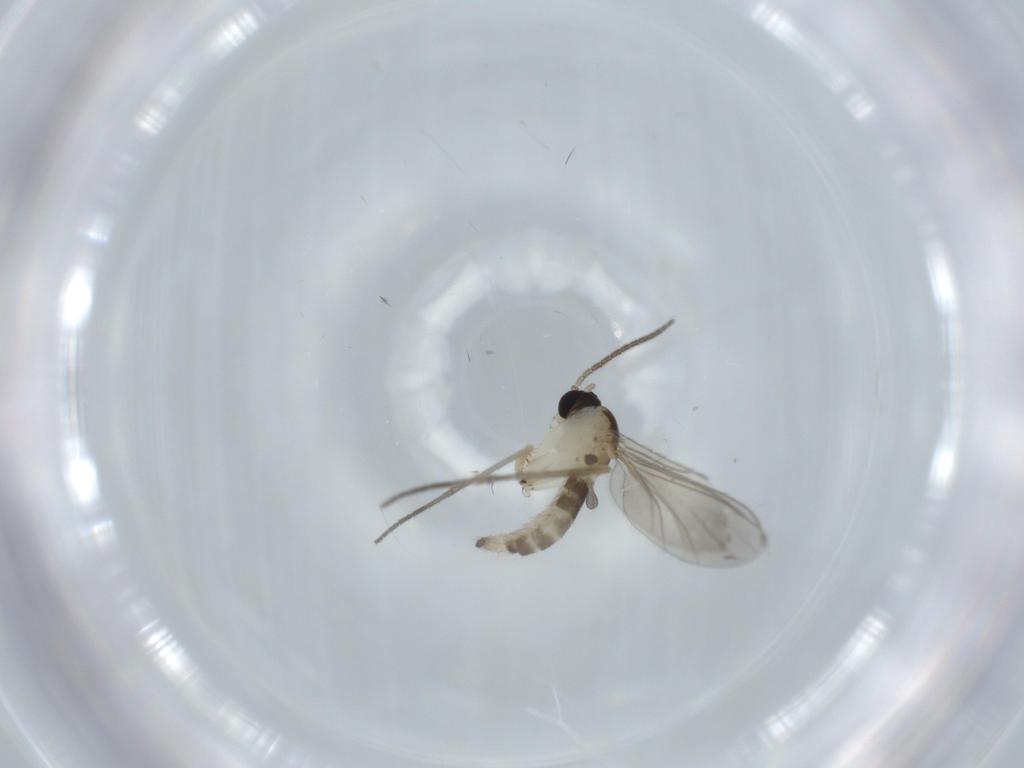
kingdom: Animalia
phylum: Arthropoda
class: Insecta
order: Diptera
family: Sciaridae
